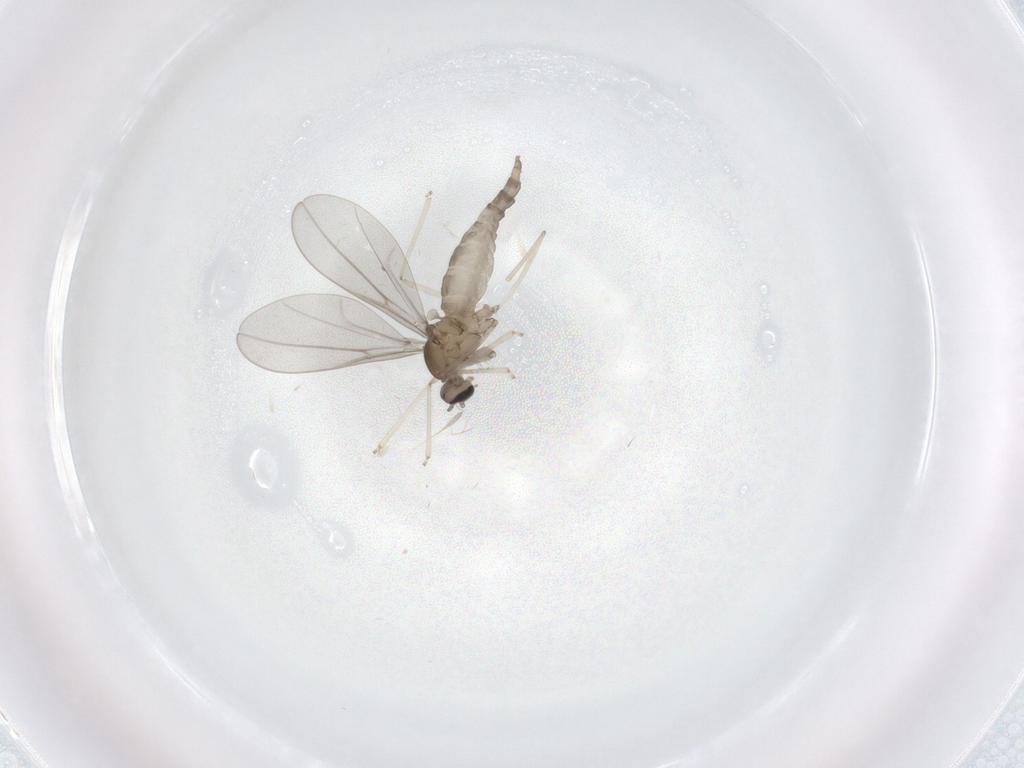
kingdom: Animalia
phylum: Arthropoda
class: Insecta
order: Diptera
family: Cecidomyiidae
